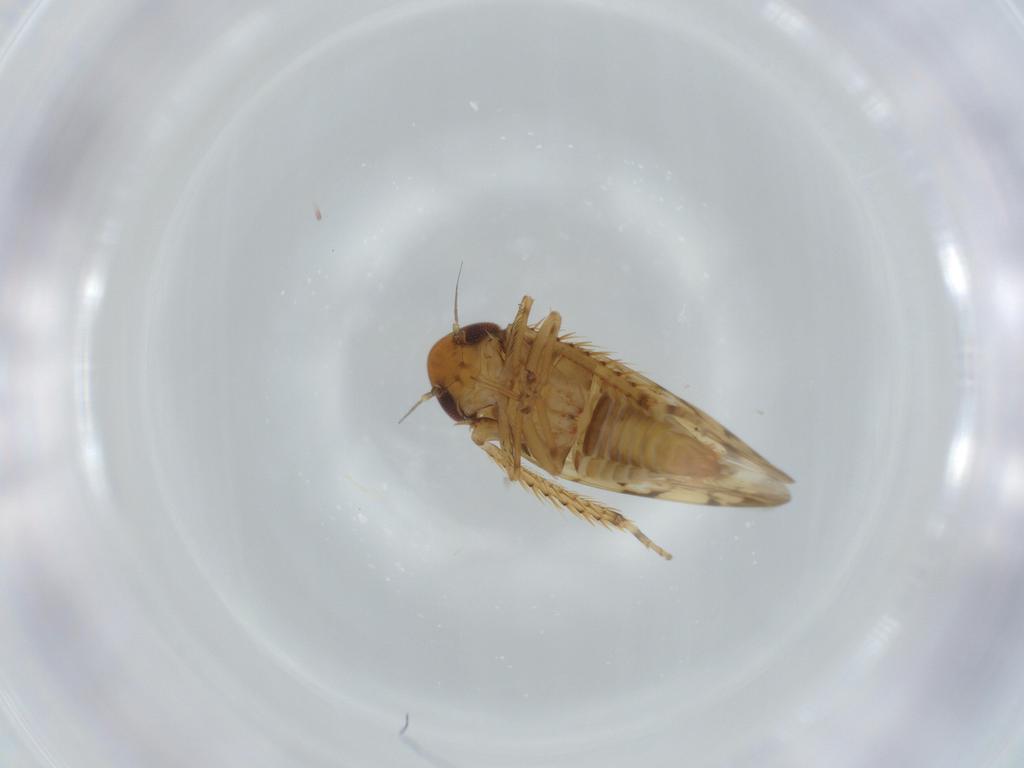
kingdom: Animalia
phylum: Arthropoda
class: Insecta
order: Hemiptera
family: Cicadellidae
